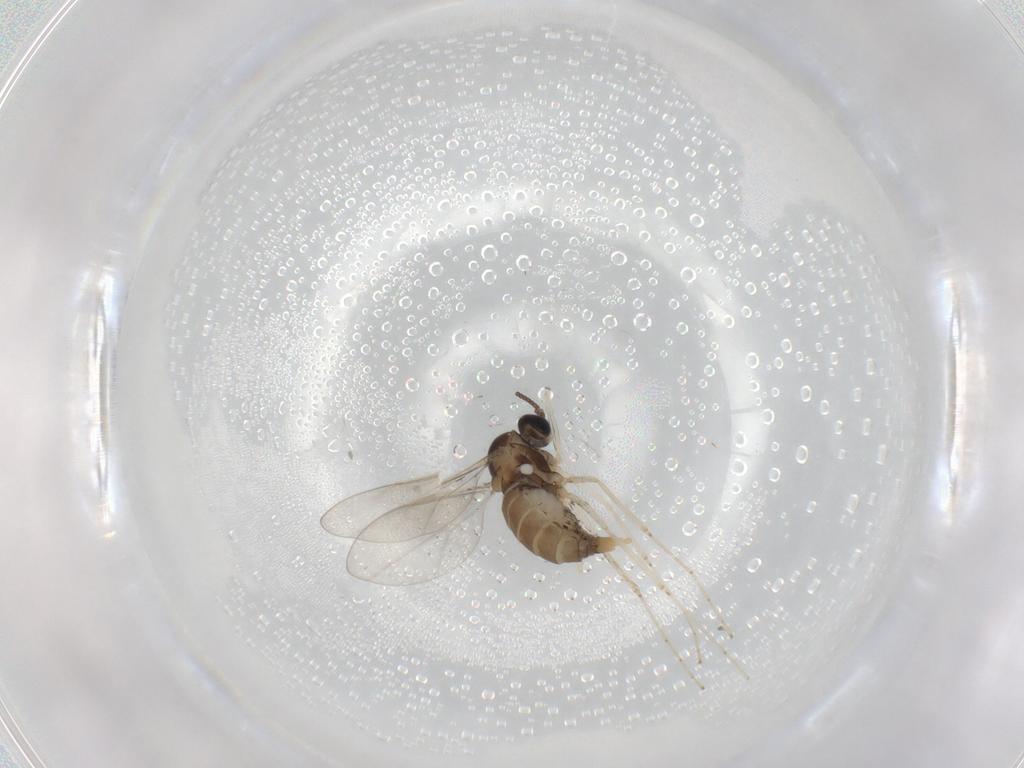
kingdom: Animalia
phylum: Arthropoda
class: Insecta
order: Diptera
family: Cecidomyiidae
